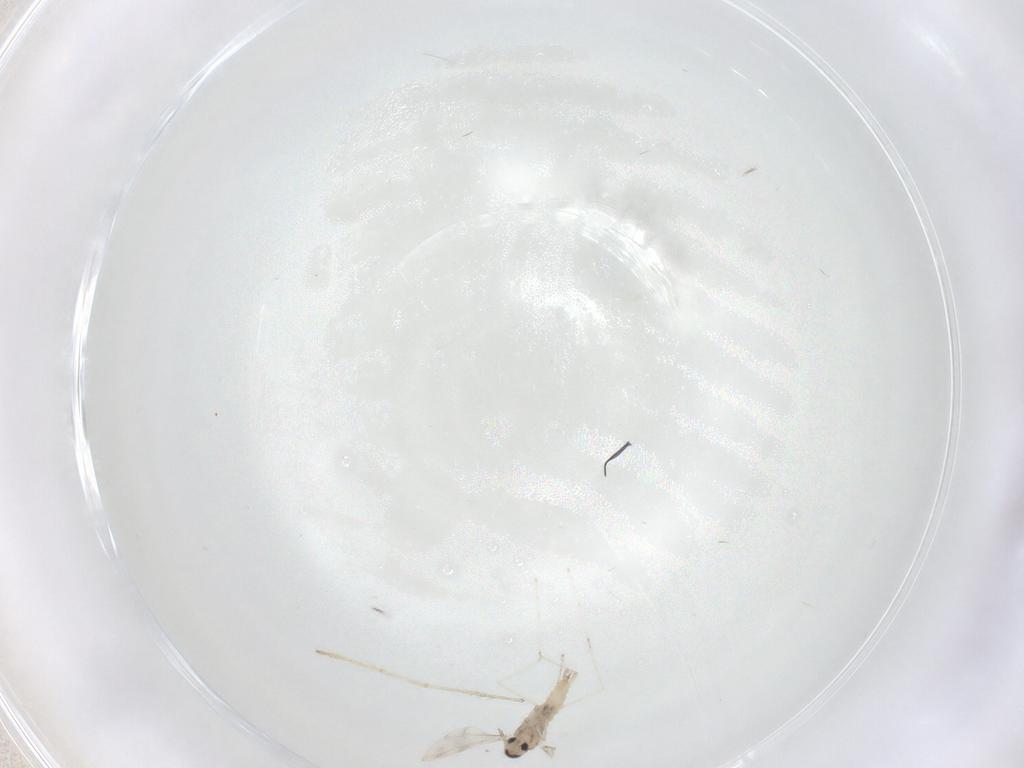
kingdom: Animalia
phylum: Arthropoda
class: Insecta
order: Diptera
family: Cecidomyiidae
